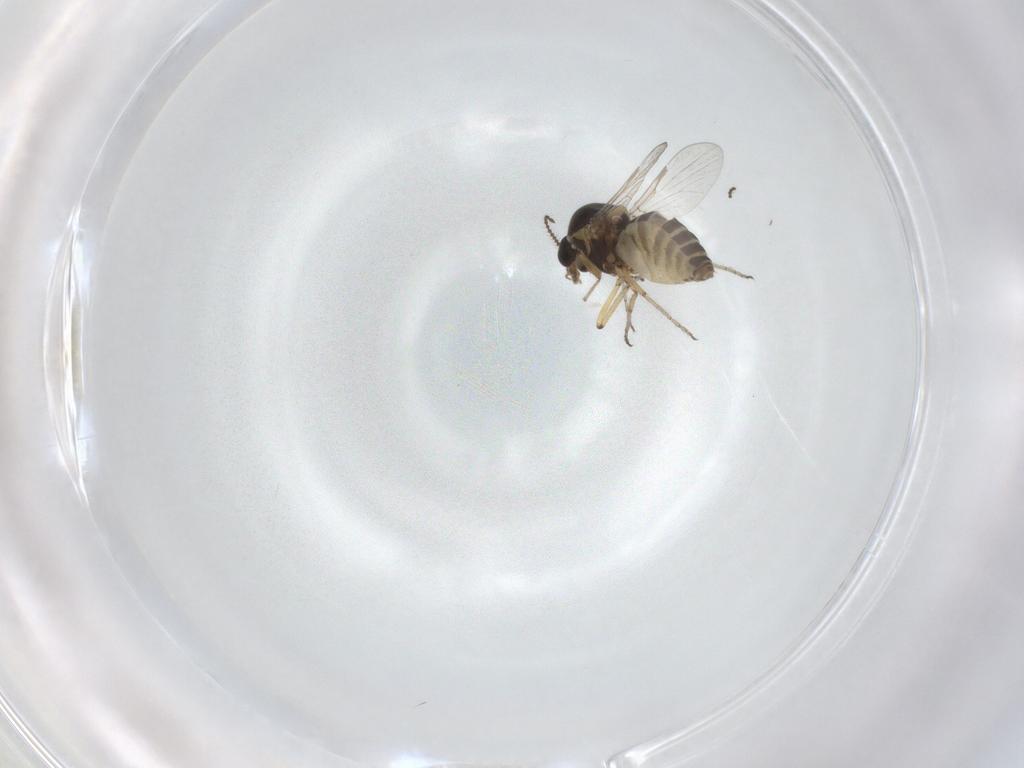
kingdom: Animalia
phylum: Arthropoda
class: Insecta
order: Diptera
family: Ceratopogonidae
